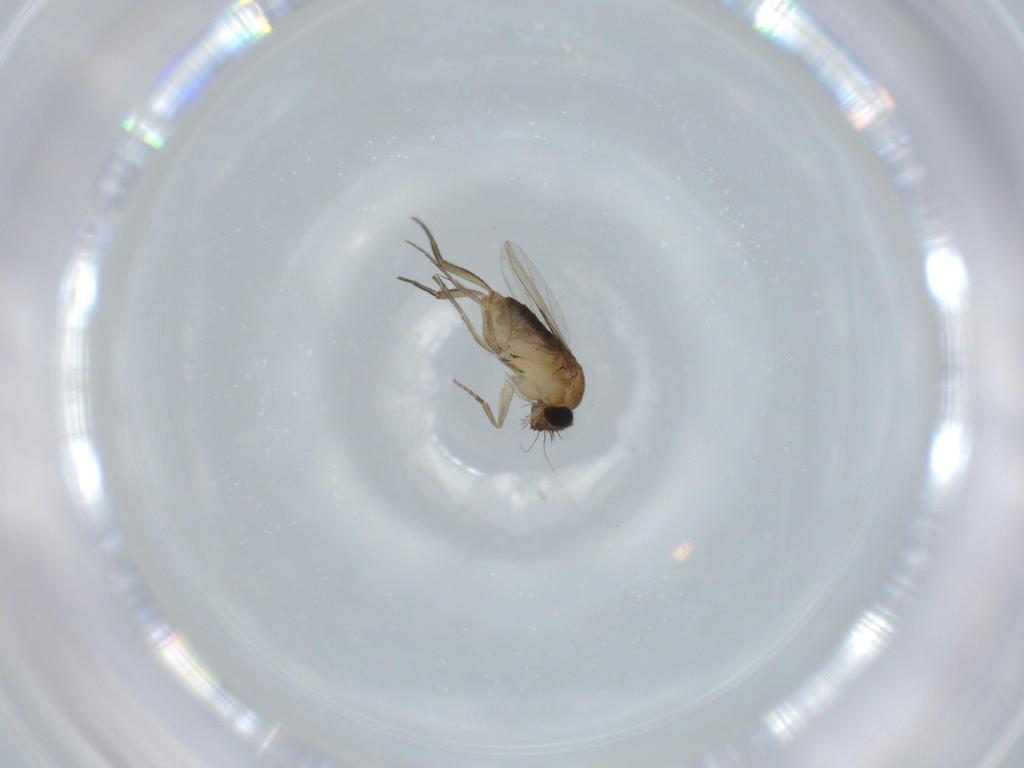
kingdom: Animalia
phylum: Arthropoda
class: Insecta
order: Diptera
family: Phoridae
